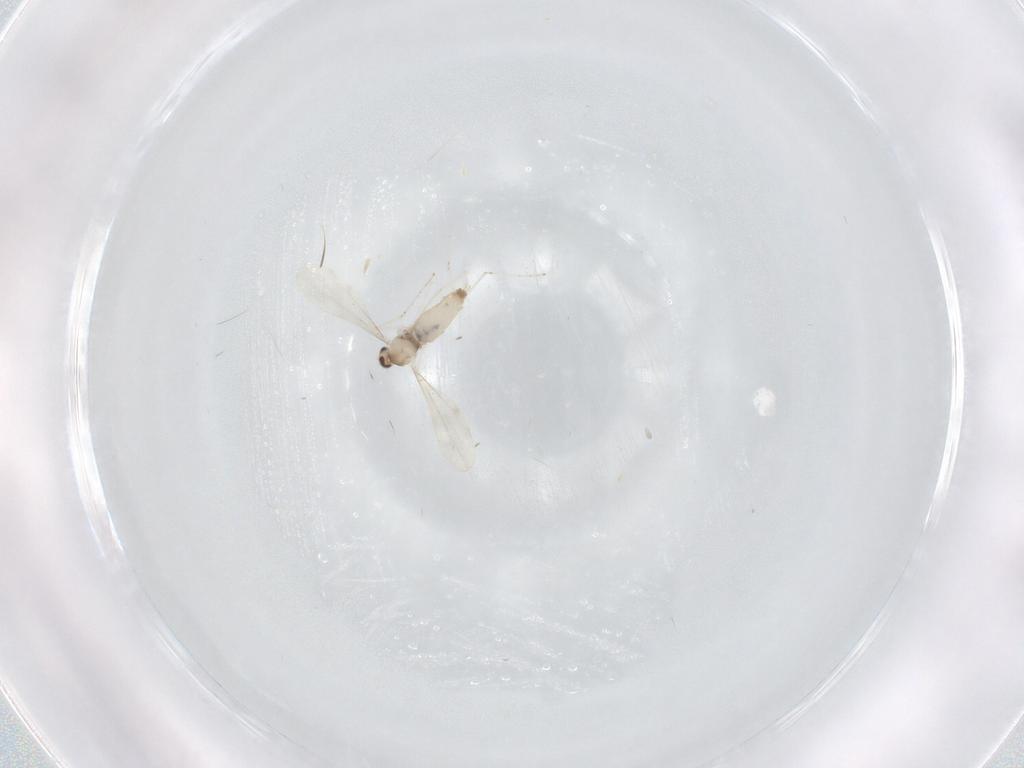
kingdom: Animalia
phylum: Arthropoda
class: Insecta
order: Diptera
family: Cecidomyiidae
